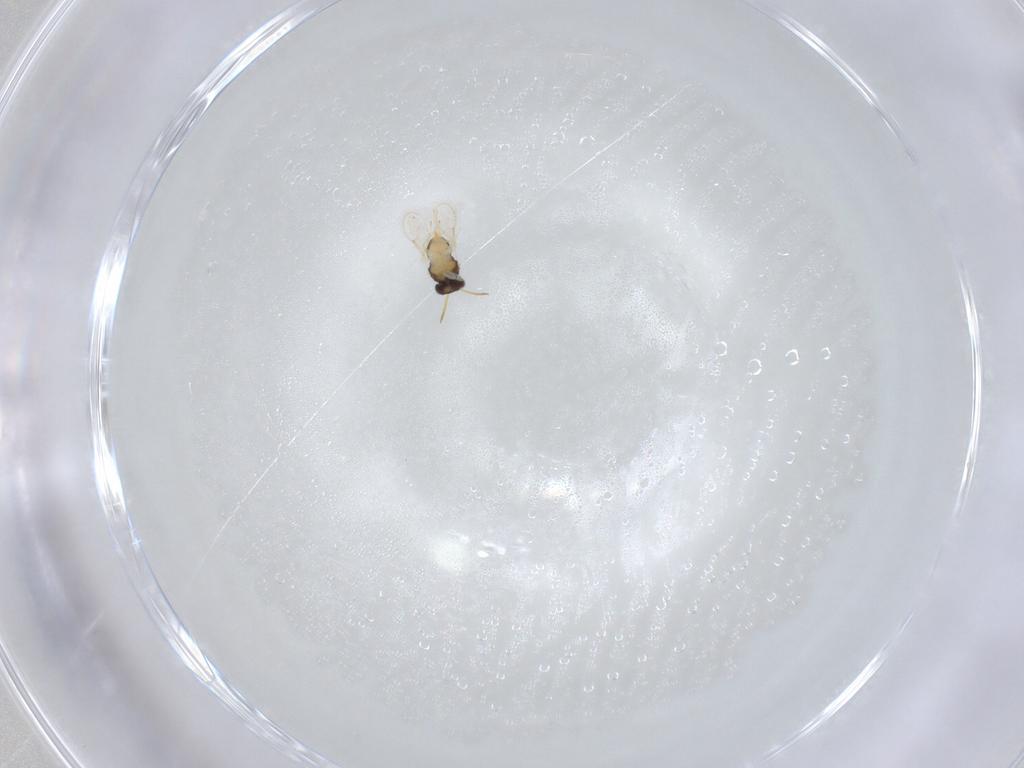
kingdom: Animalia
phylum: Arthropoda
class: Insecta
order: Hymenoptera
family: Aphelinidae
